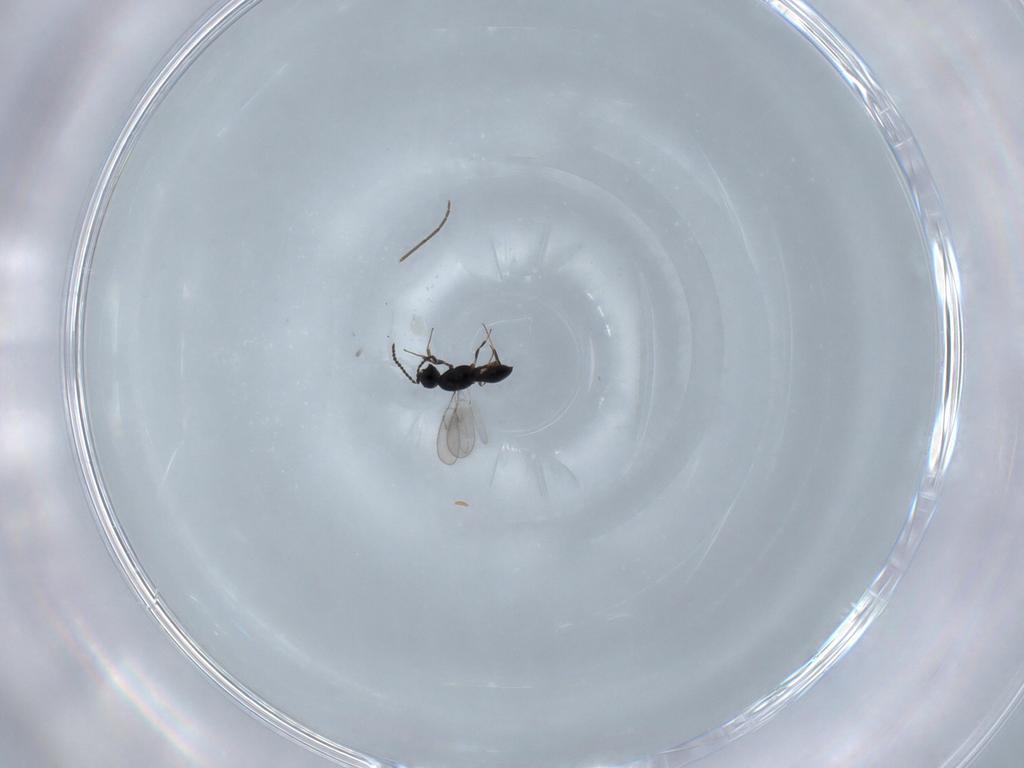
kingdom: Animalia
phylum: Arthropoda
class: Insecta
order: Hymenoptera
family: Scelionidae
